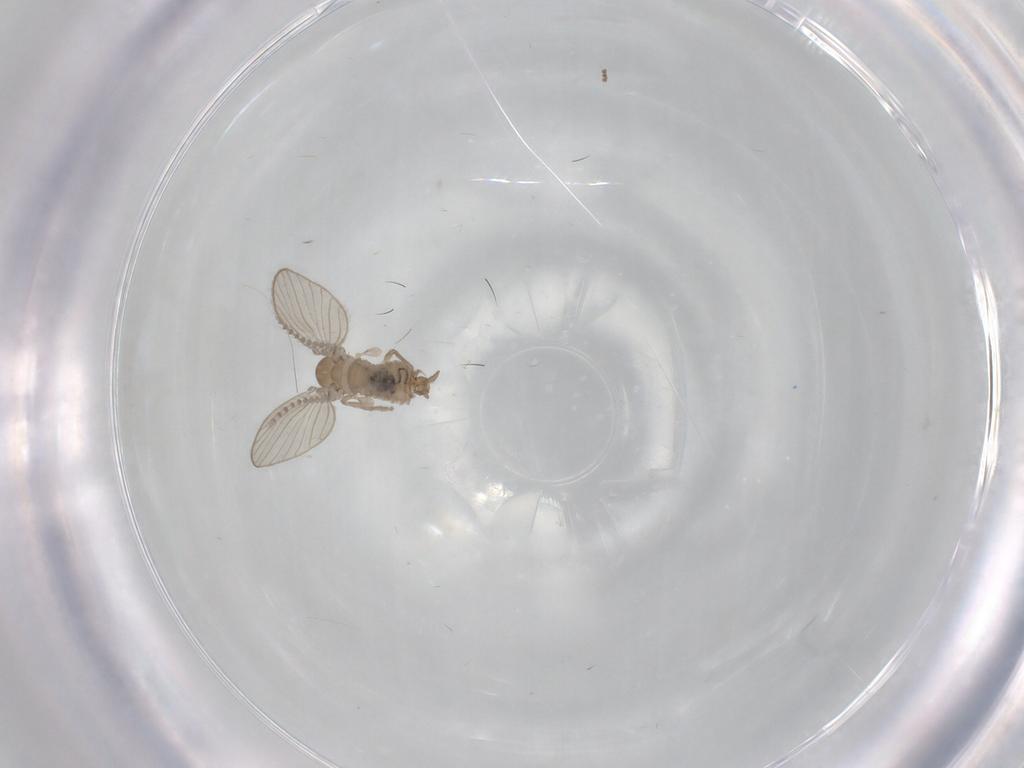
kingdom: Animalia
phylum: Arthropoda
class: Insecta
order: Diptera
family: Psychodidae
